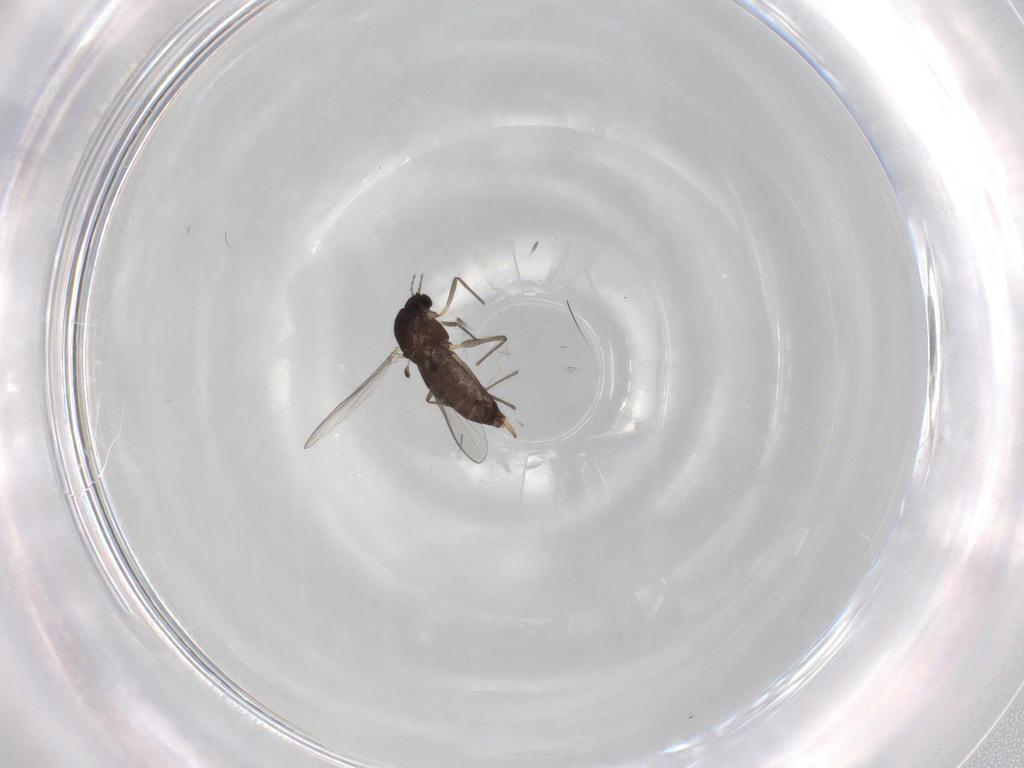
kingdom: Animalia
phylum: Arthropoda
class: Insecta
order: Diptera
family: Chironomidae
